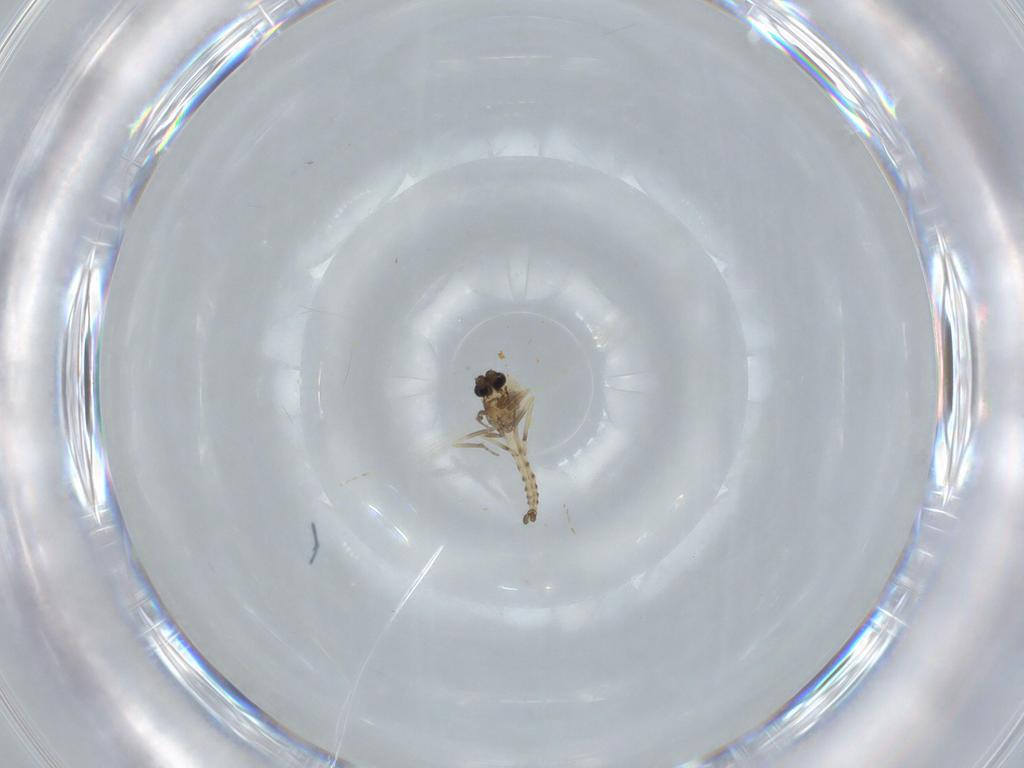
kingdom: Animalia
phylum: Arthropoda
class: Insecta
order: Diptera
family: Ceratopogonidae
